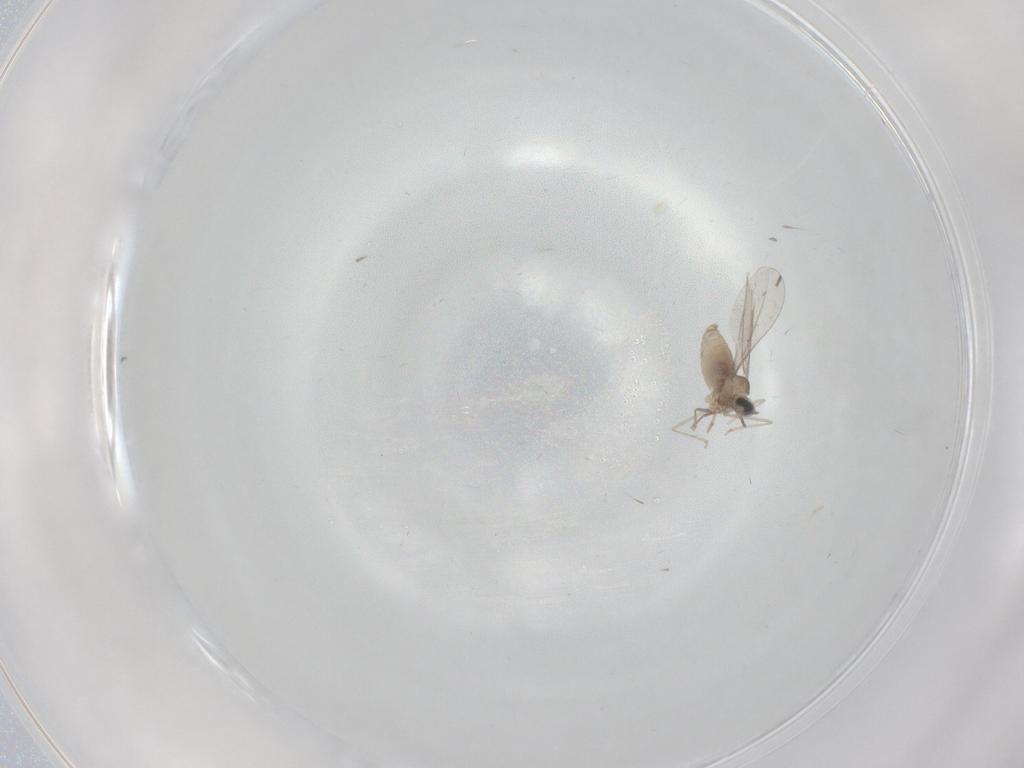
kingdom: Animalia
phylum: Arthropoda
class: Insecta
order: Diptera
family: Cecidomyiidae
